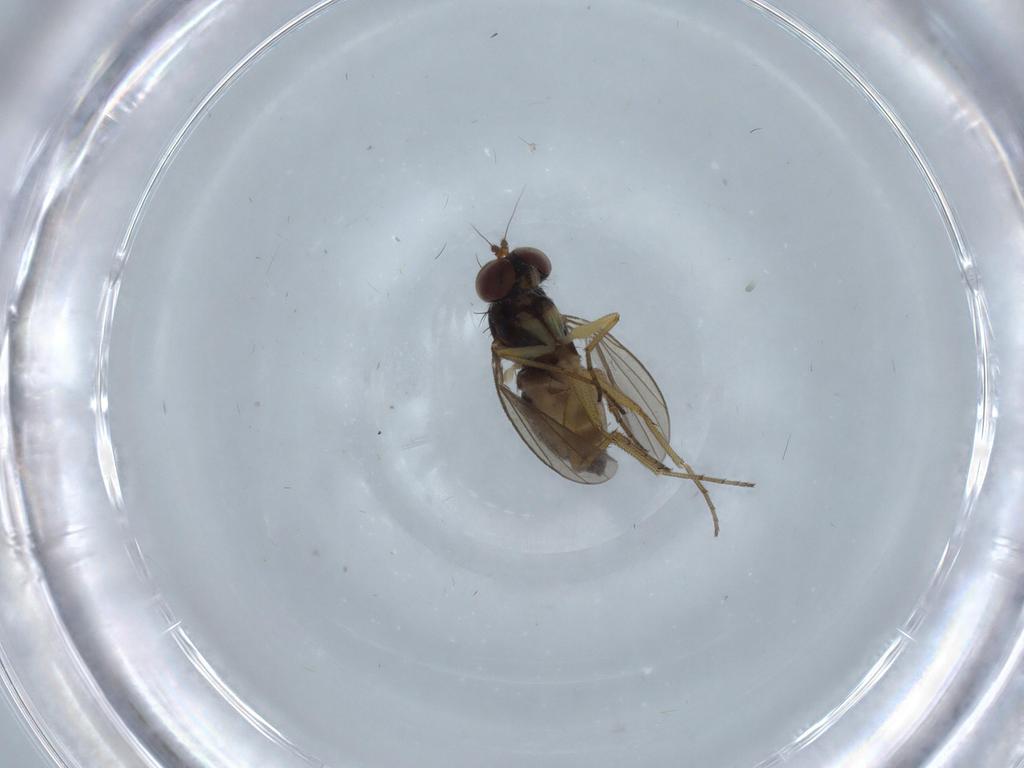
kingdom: Animalia
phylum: Arthropoda
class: Insecta
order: Diptera
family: Dolichopodidae
